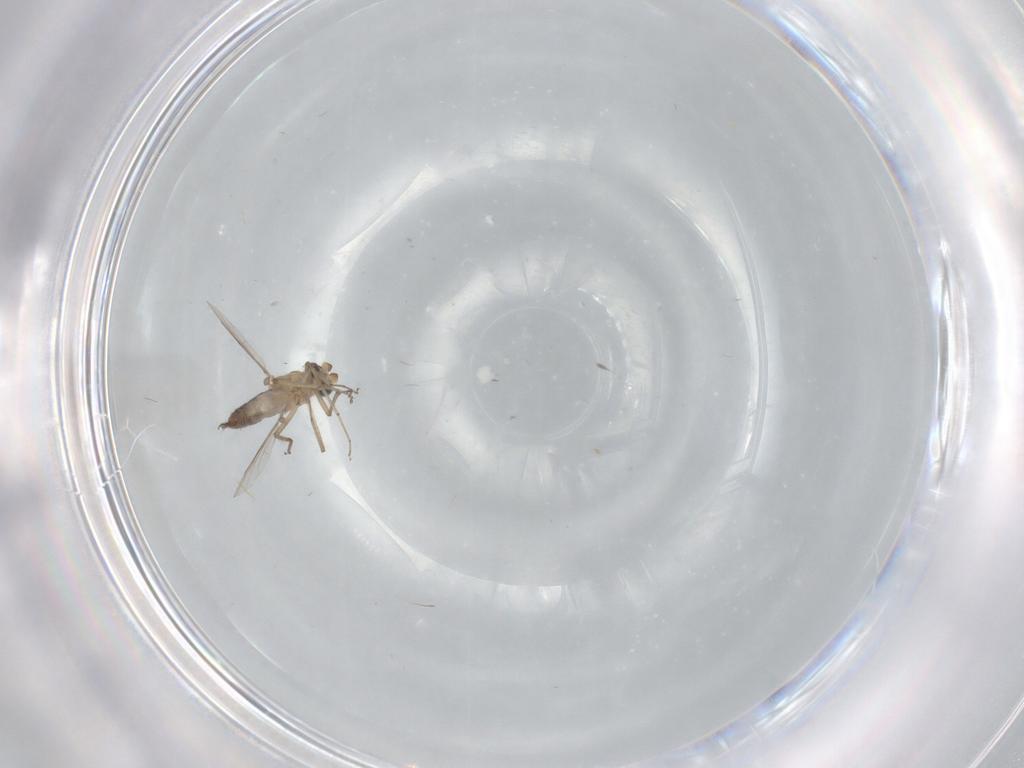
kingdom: Animalia
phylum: Arthropoda
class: Insecta
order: Diptera
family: Ceratopogonidae
